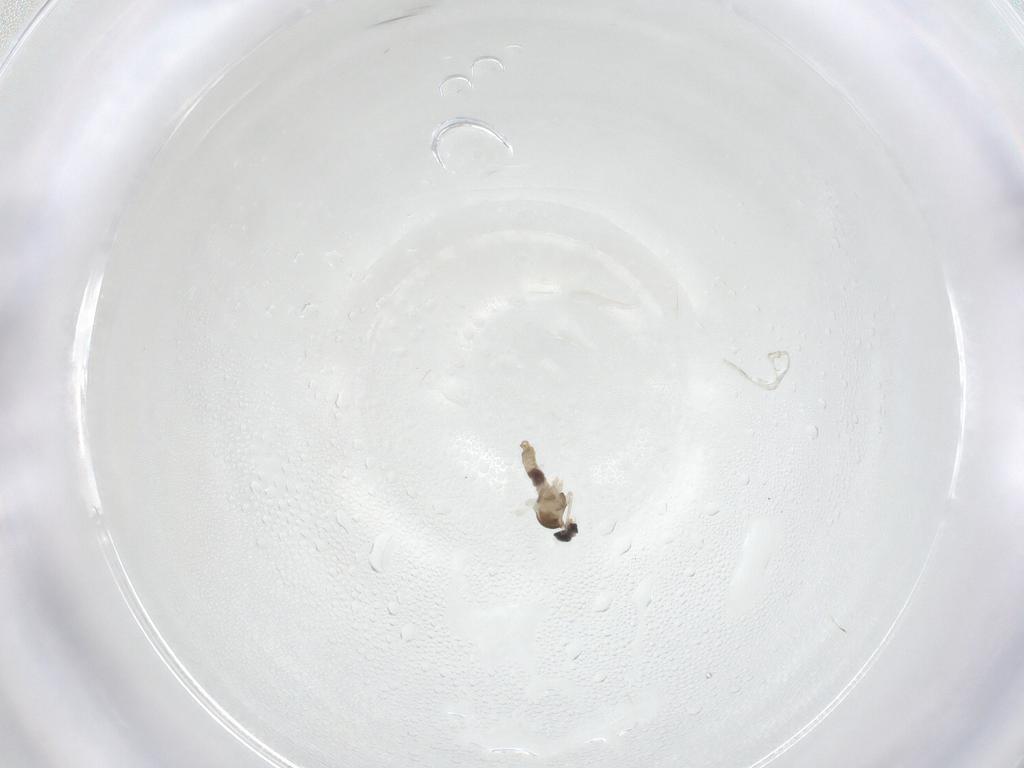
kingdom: Animalia
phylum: Arthropoda
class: Insecta
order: Diptera
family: Cecidomyiidae
